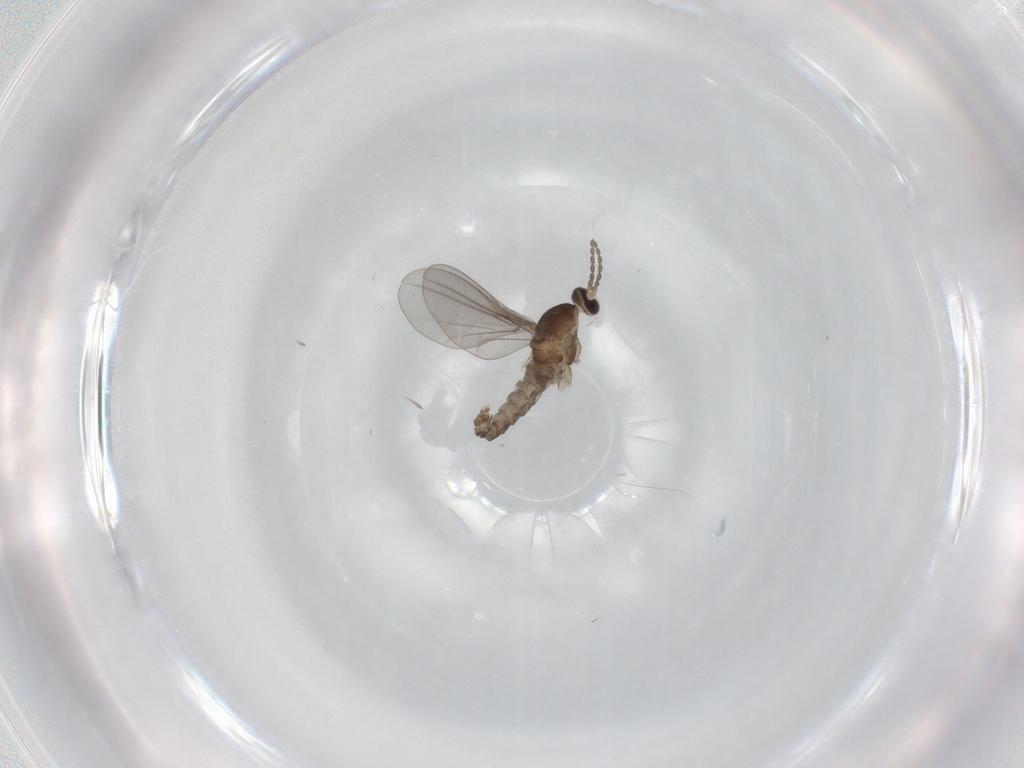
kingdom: Animalia
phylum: Arthropoda
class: Insecta
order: Diptera
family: Cecidomyiidae
